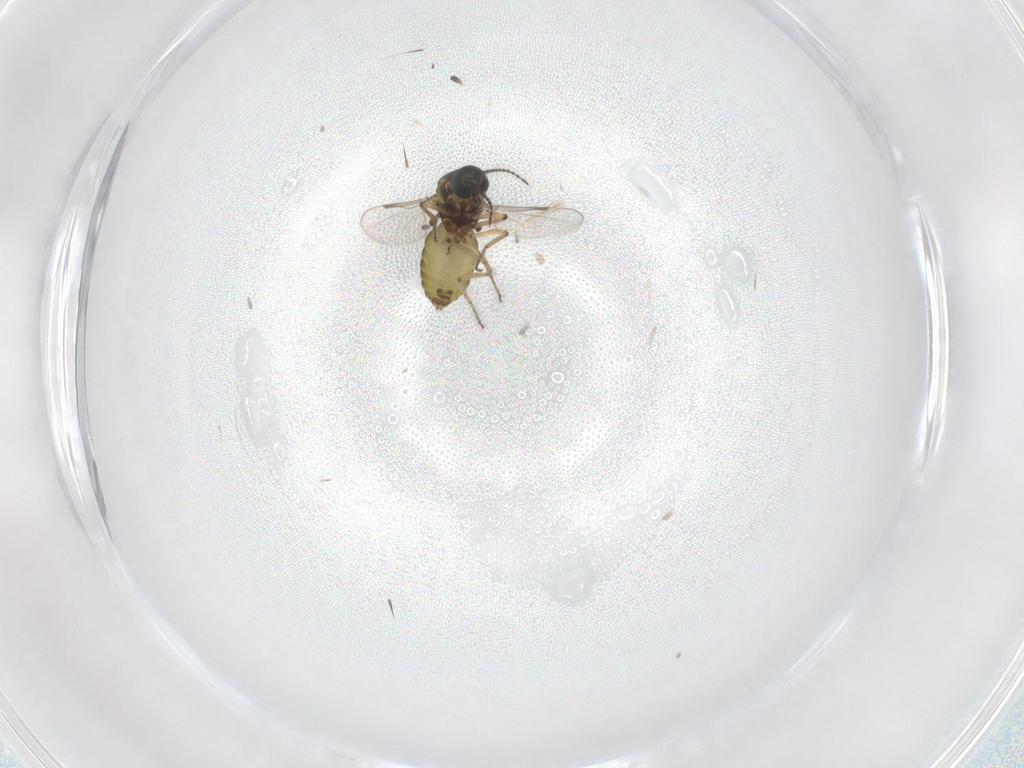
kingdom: Animalia
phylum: Arthropoda
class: Insecta
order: Diptera
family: Ceratopogonidae
